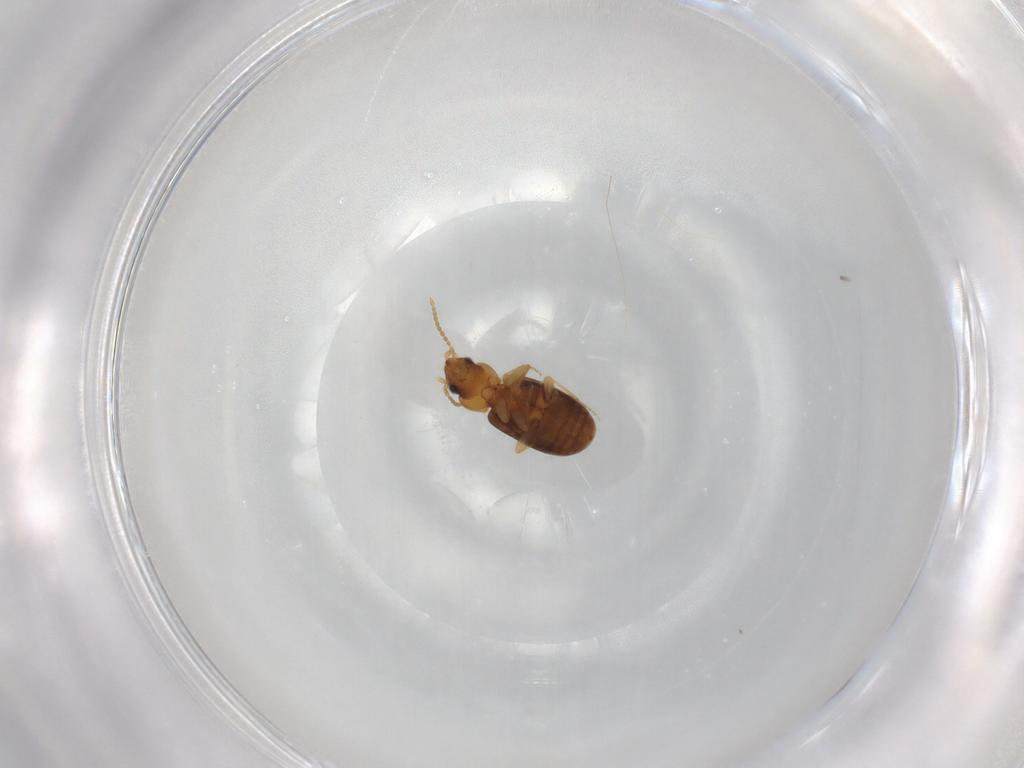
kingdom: Animalia
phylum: Arthropoda
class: Insecta
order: Coleoptera
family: Carabidae
